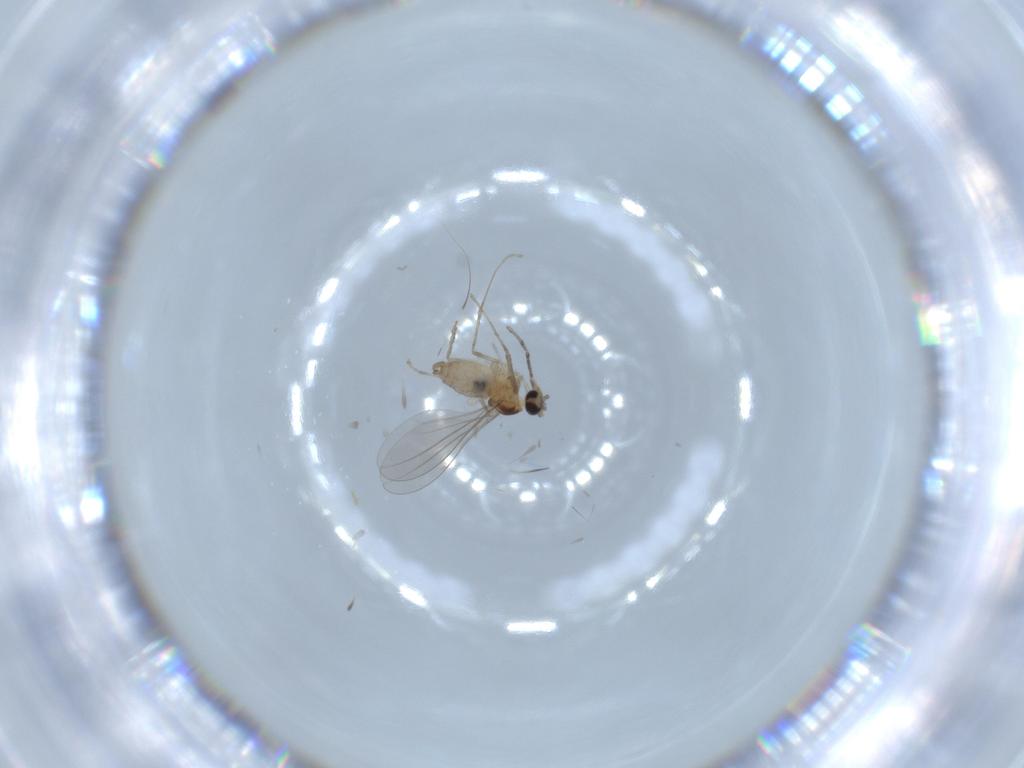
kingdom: Animalia
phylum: Arthropoda
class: Insecta
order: Diptera
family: Cecidomyiidae
